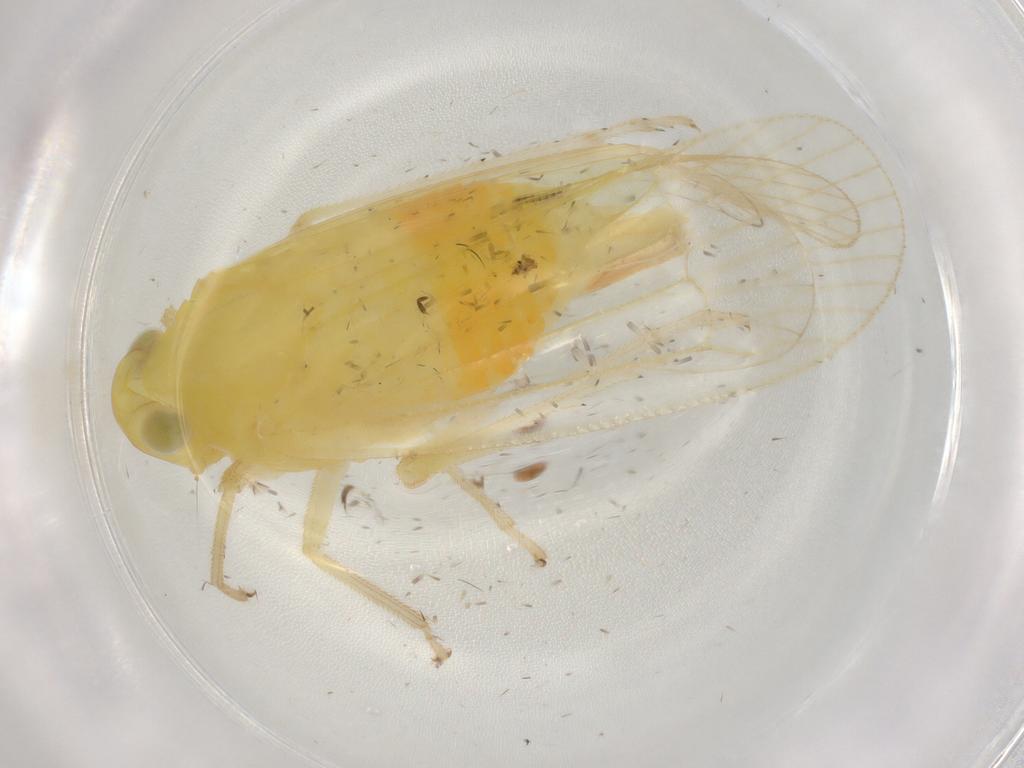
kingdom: Animalia
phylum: Arthropoda
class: Insecta
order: Hemiptera
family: Tropiduchidae
